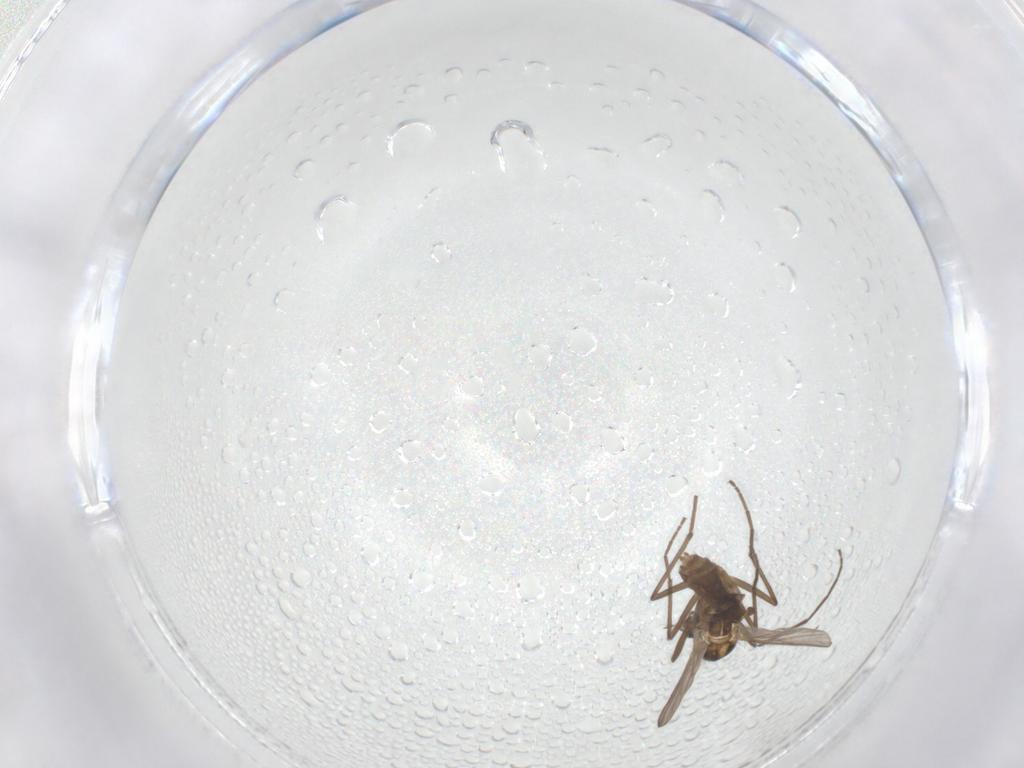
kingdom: Animalia
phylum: Arthropoda
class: Insecta
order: Diptera
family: Chironomidae
